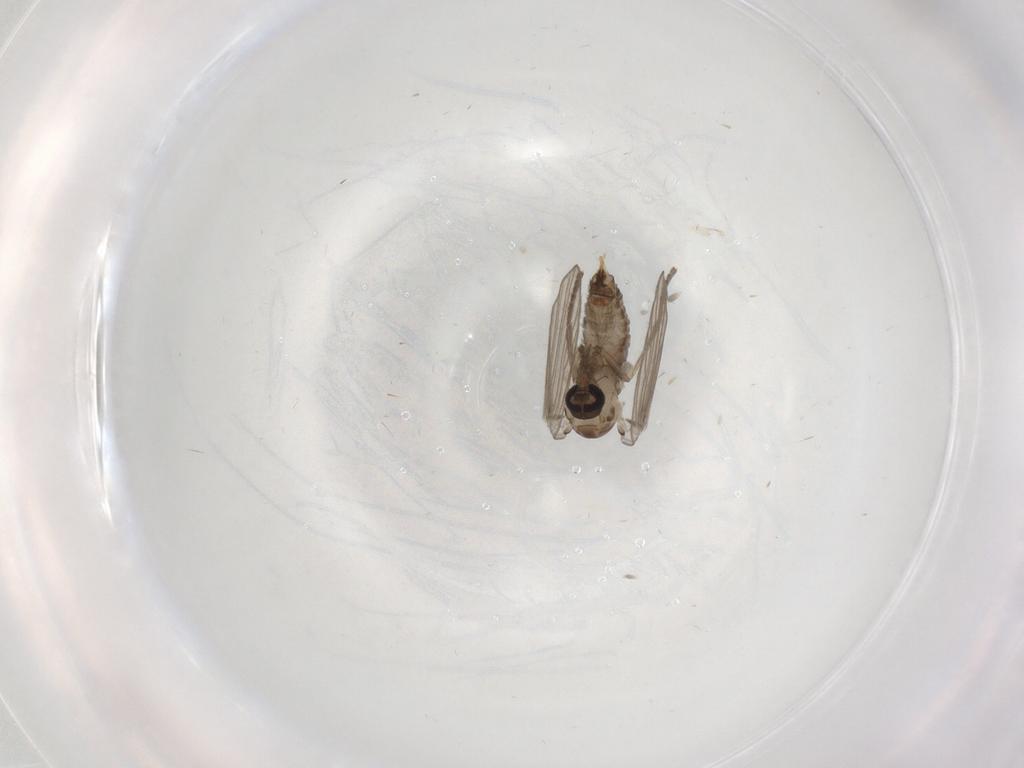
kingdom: Animalia
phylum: Arthropoda
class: Insecta
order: Diptera
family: Psychodidae
